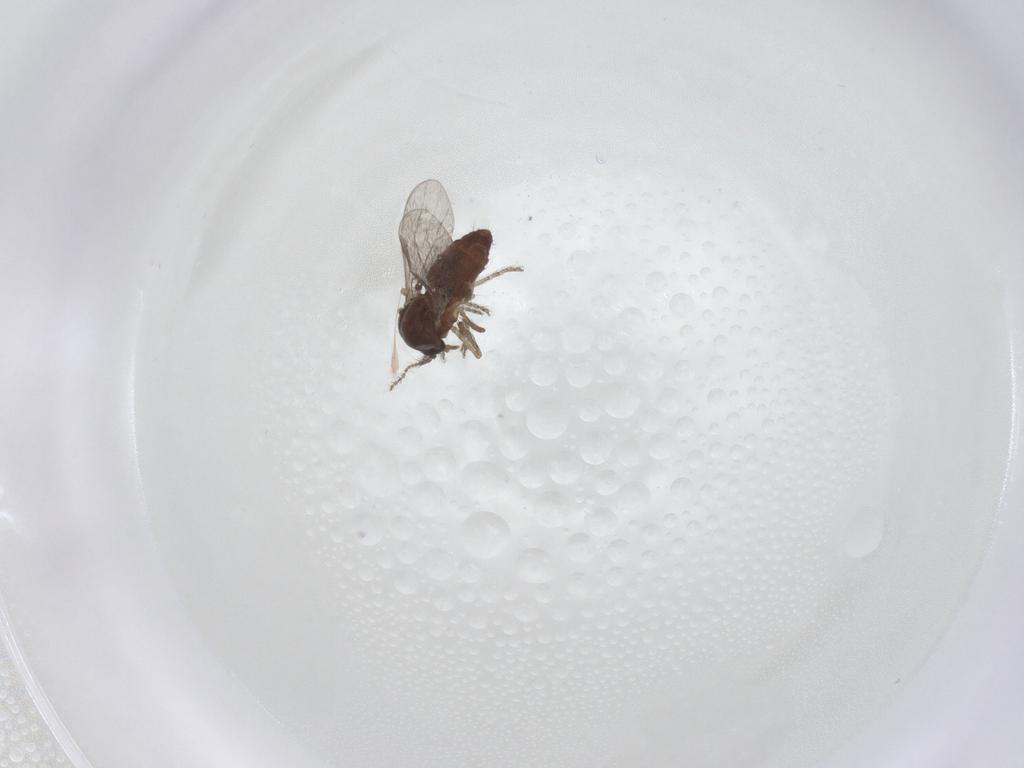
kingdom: Animalia
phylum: Arthropoda
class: Insecta
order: Diptera
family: Ceratopogonidae
